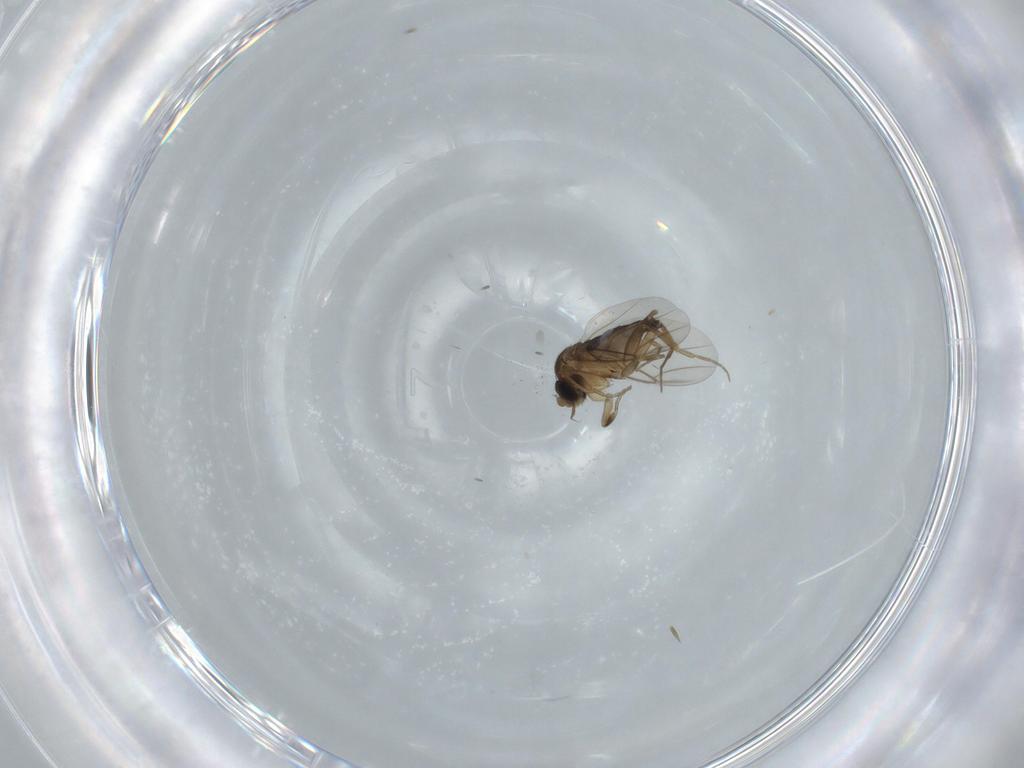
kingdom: Animalia
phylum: Arthropoda
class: Insecta
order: Diptera
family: Phoridae
